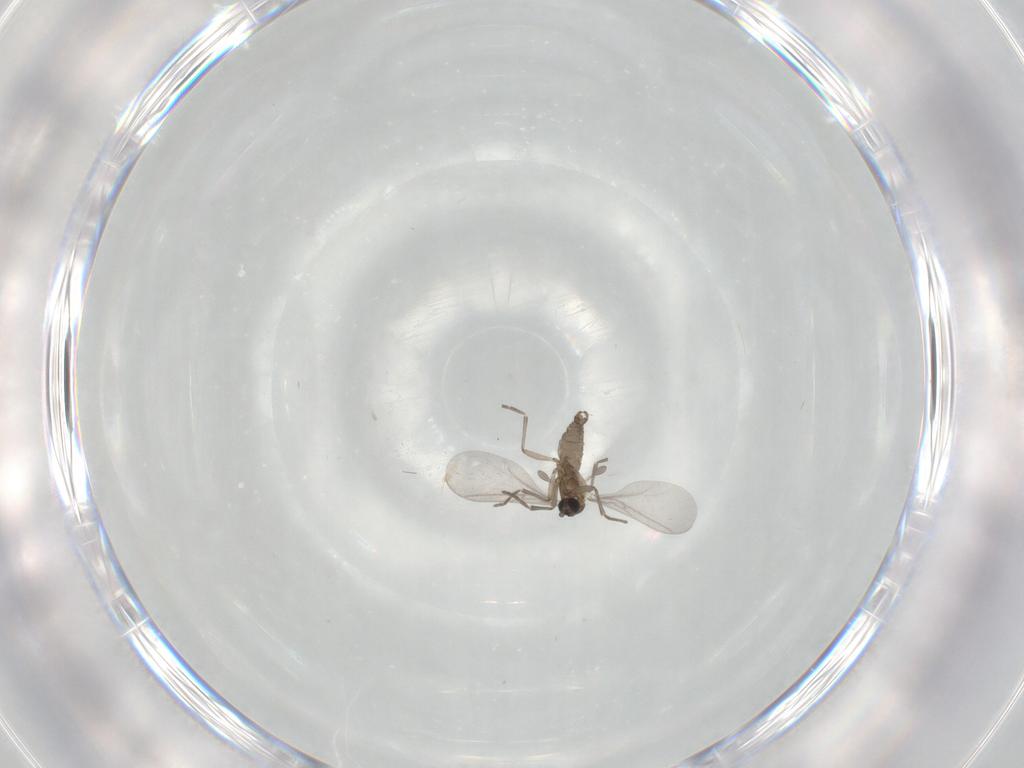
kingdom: Animalia
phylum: Arthropoda
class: Insecta
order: Diptera
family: Sciaridae
